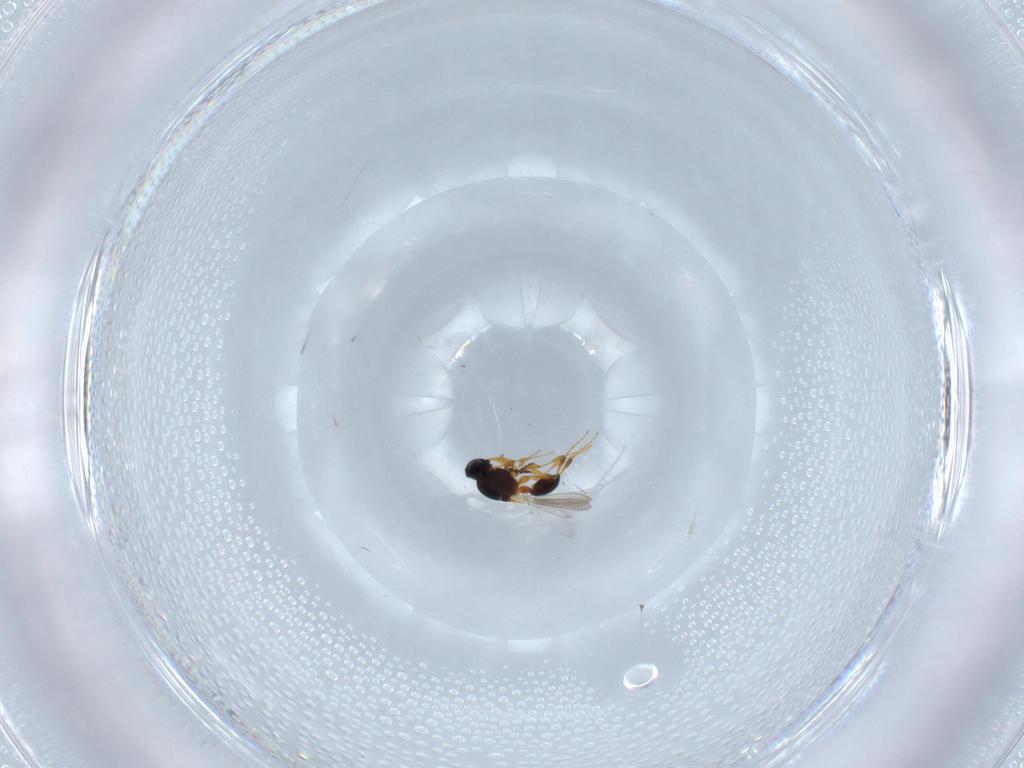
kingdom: Animalia
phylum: Arthropoda
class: Insecta
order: Hymenoptera
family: Platygastridae
